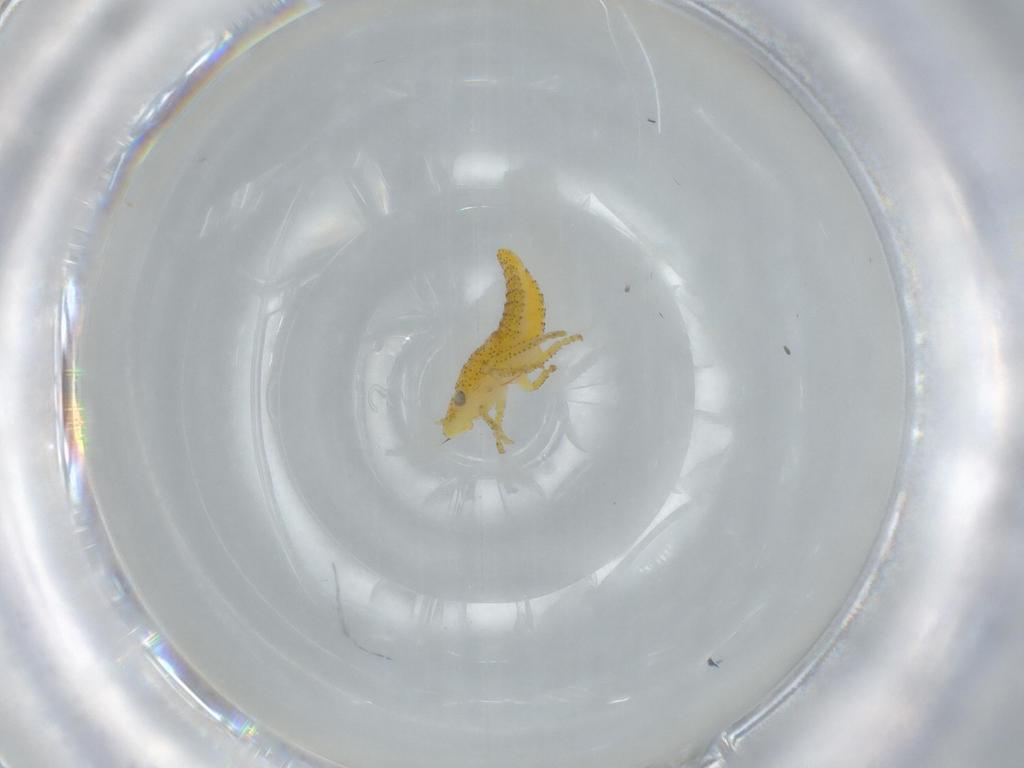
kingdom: Animalia
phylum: Arthropoda
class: Insecta
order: Hemiptera
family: Cicadellidae
